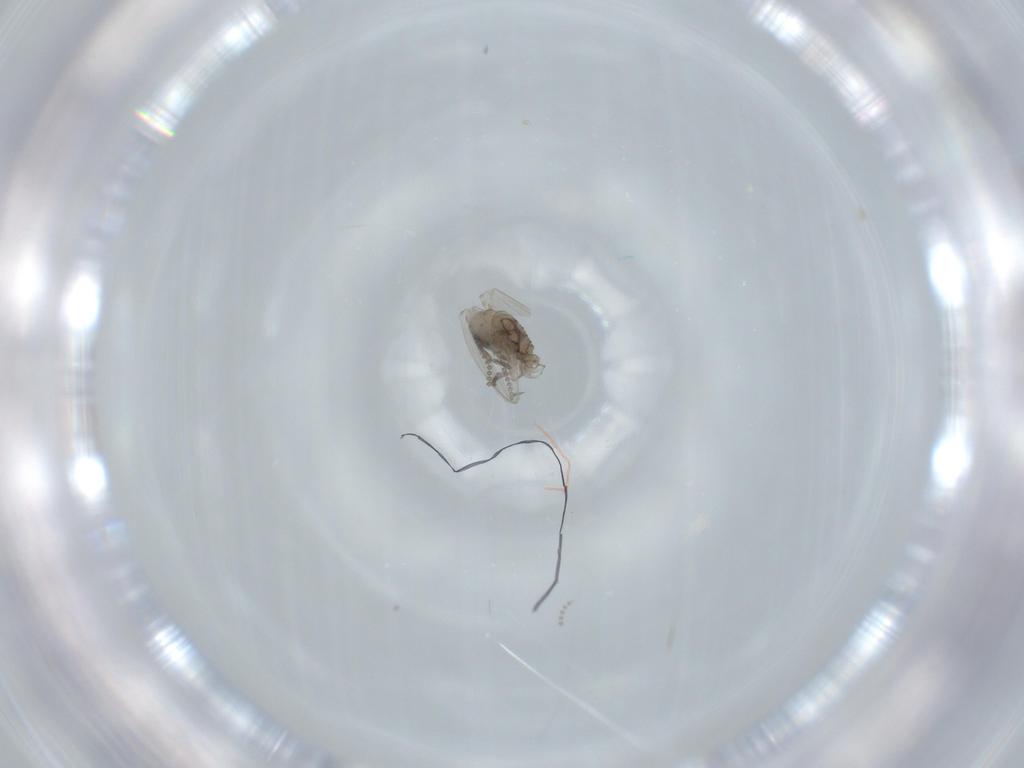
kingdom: Animalia
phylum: Arthropoda
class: Insecta
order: Diptera
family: Psychodidae
